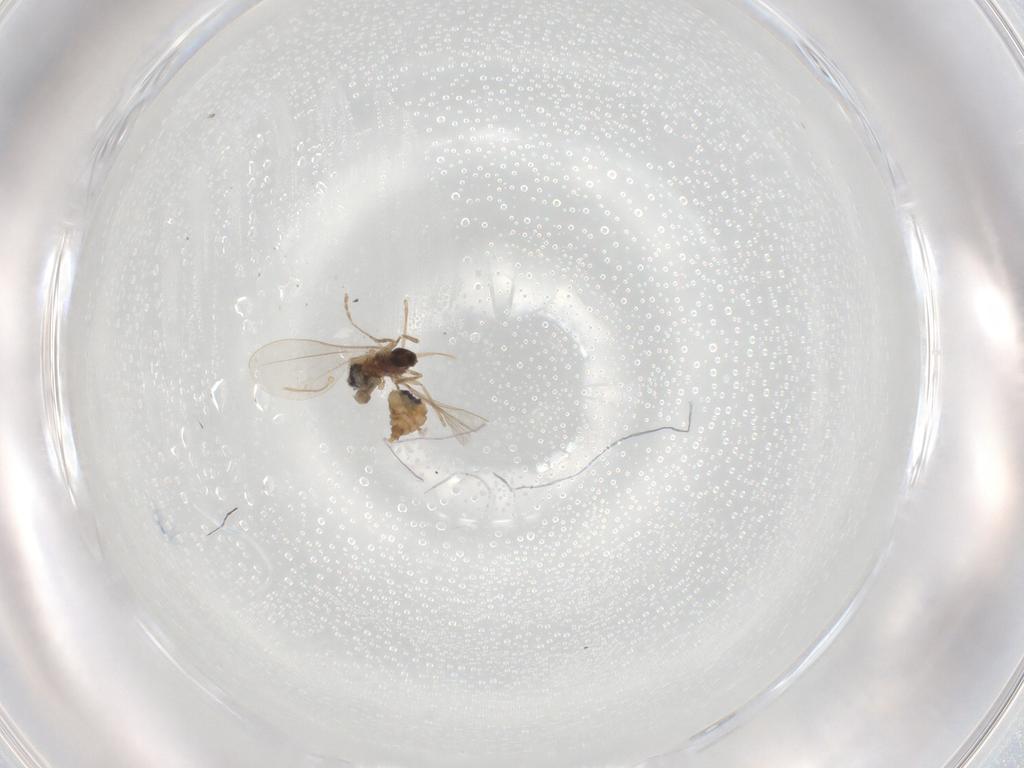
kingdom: Animalia
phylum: Arthropoda
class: Insecta
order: Diptera
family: Cecidomyiidae
